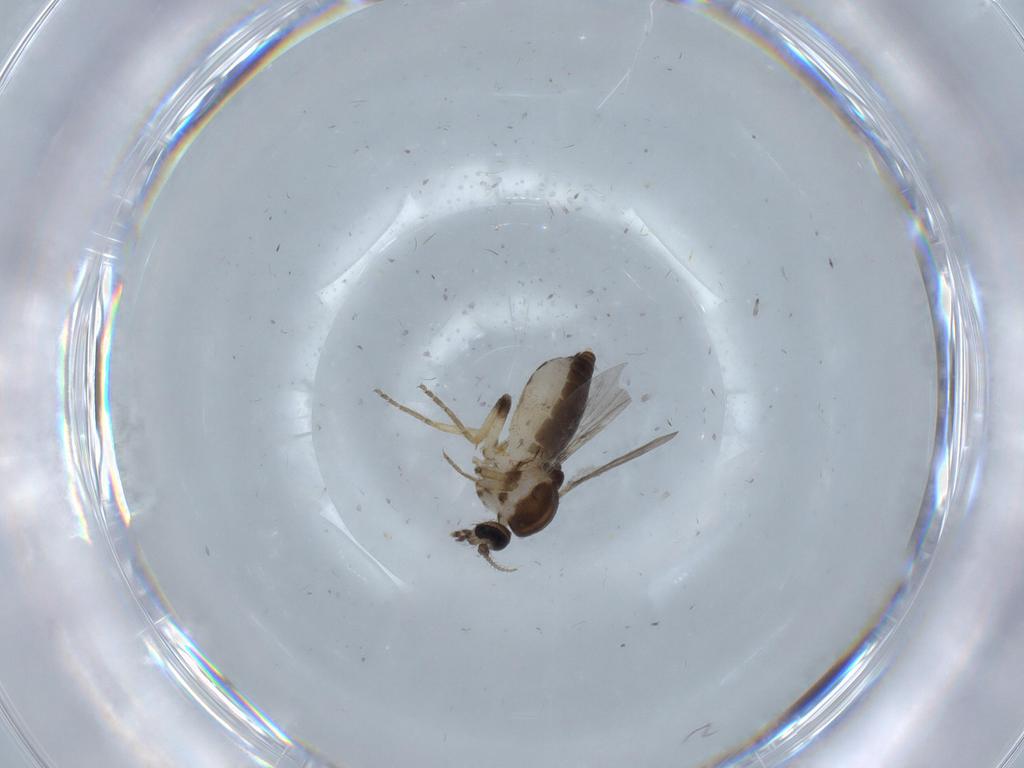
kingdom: Animalia
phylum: Arthropoda
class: Insecta
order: Diptera
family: Ceratopogonidae
